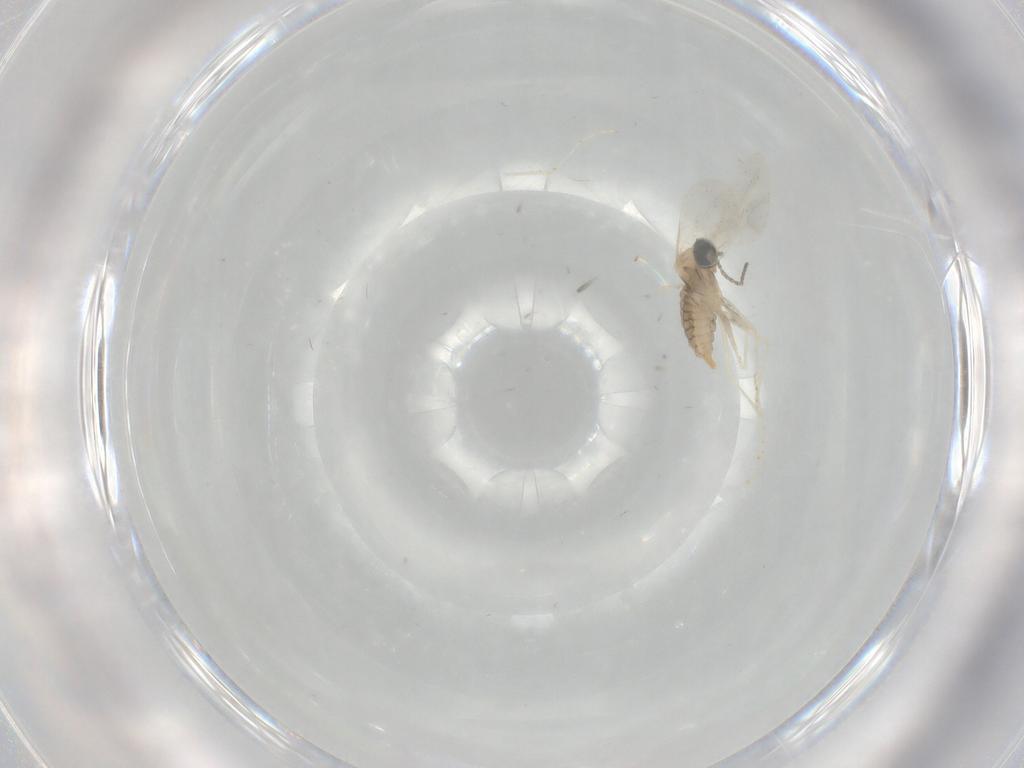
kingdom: Animalia
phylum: Arthropoda
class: Insecta
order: Diptera
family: Cecidomyiidae
